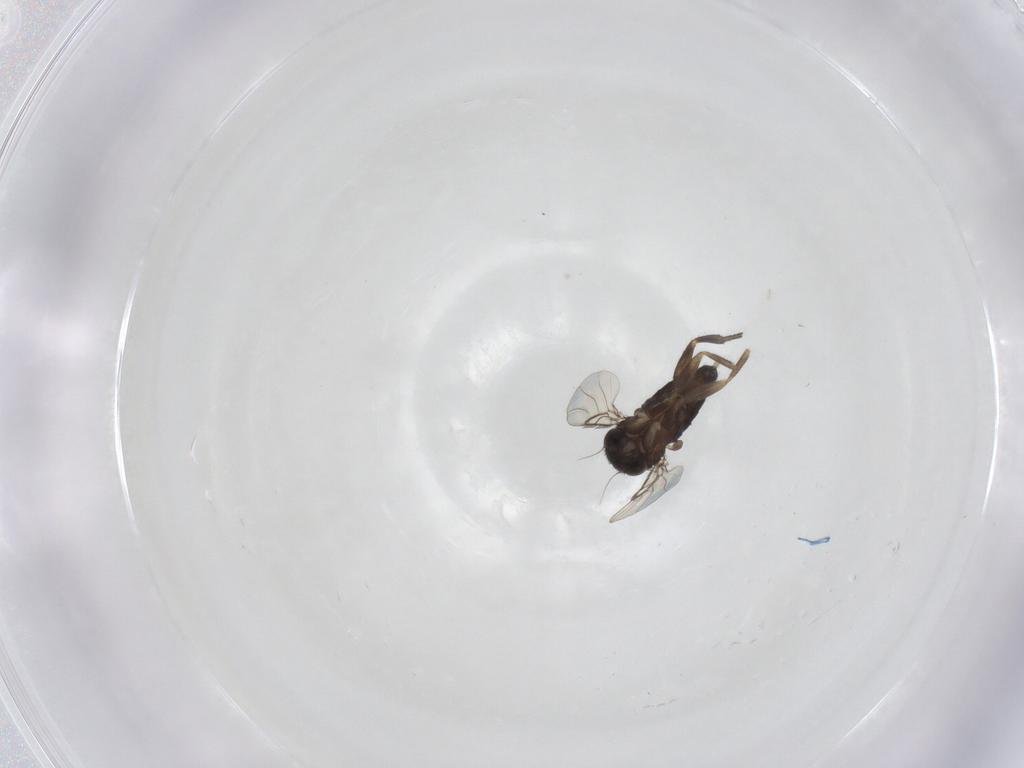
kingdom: Animalia
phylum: Arthropoda
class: Insecta
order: Diptera
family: Phoridae
